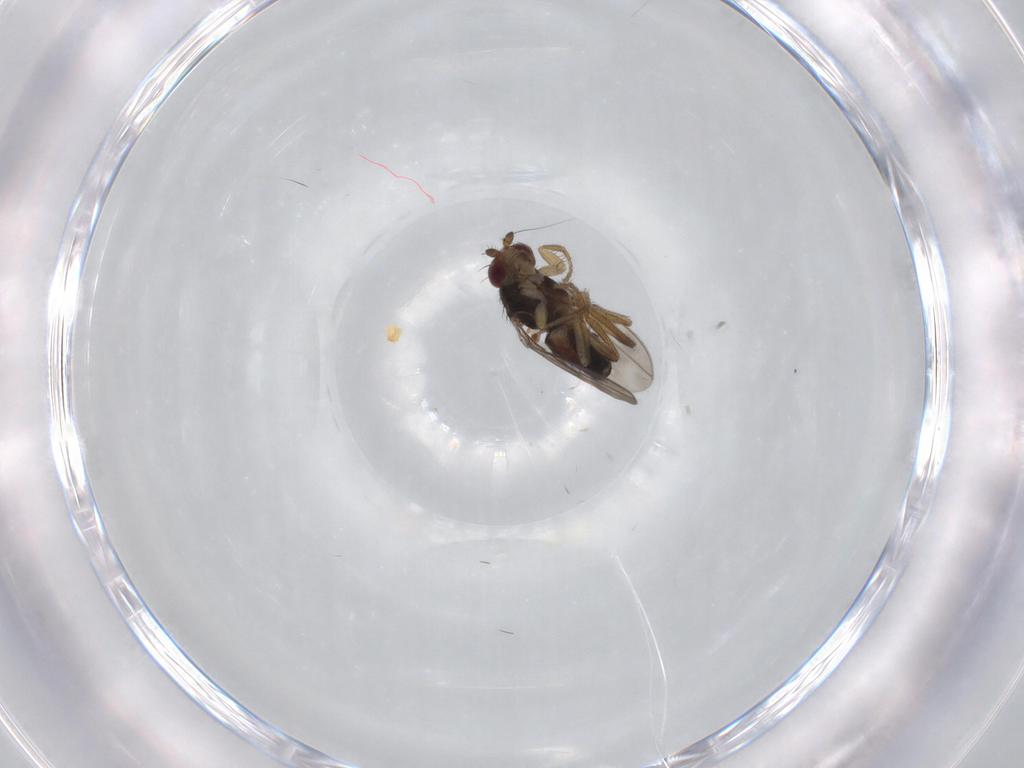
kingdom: Animalia
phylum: Arthropoda
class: Insecta
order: Diptera
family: Sphaeroceridae
